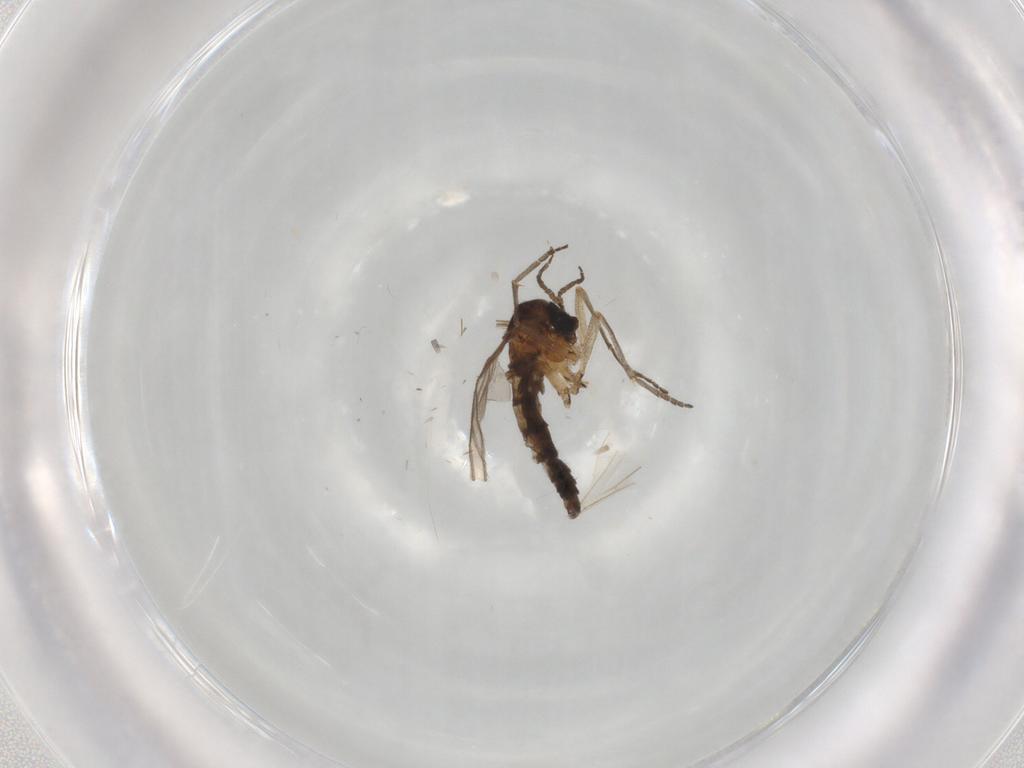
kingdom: Animalia
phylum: Arthropoda
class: Insecta
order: Diptera
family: Sciaridae
